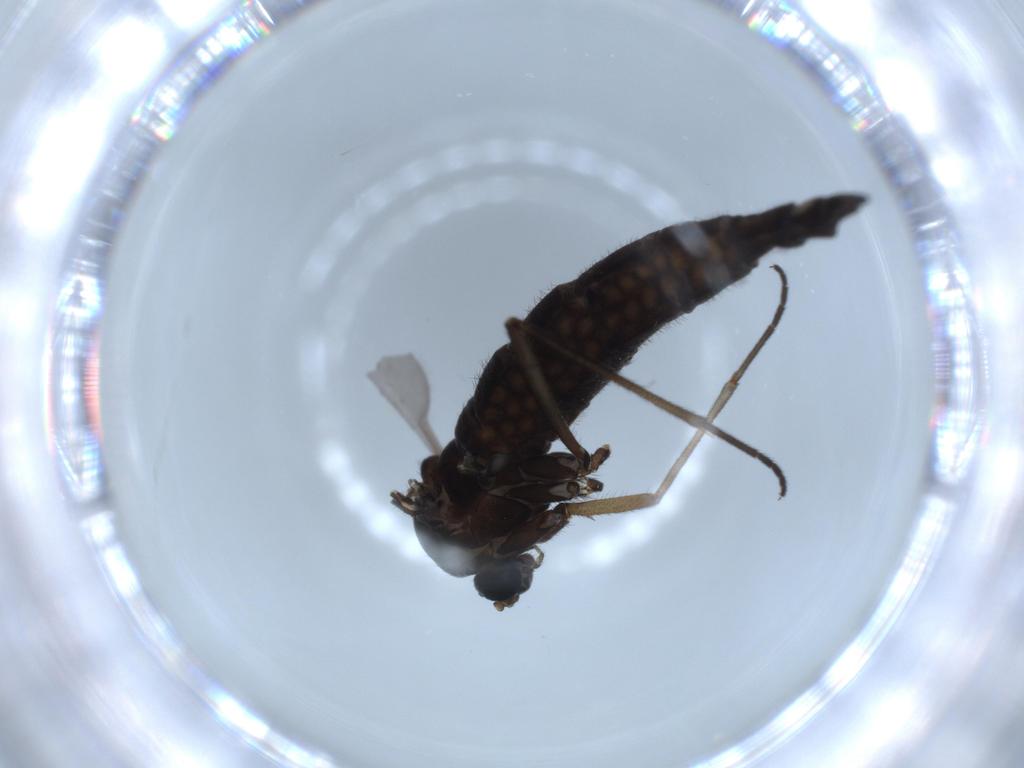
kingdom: Animalia
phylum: Arthropoda
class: Insecta
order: Diptera
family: Sciaridae
